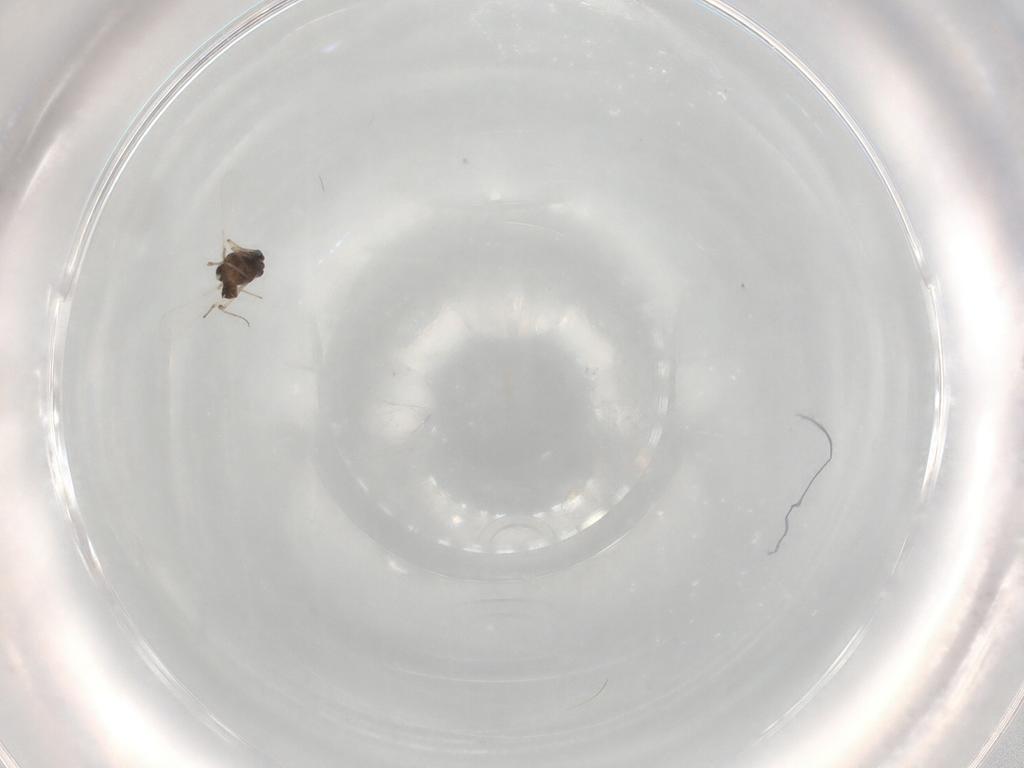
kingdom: Animalia
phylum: Arthropoda
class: Insecta
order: Diptera
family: Chironomidae
